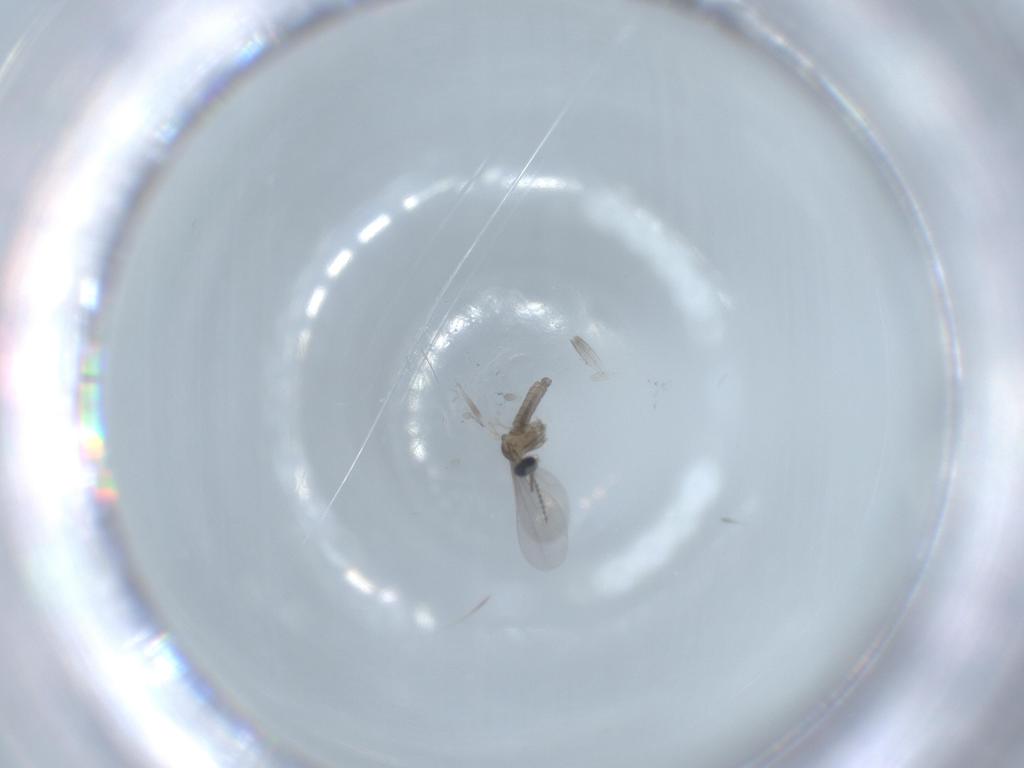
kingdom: Animalia
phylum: Arthropoda
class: Insecta
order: Diptera
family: Cecidomyiidae
